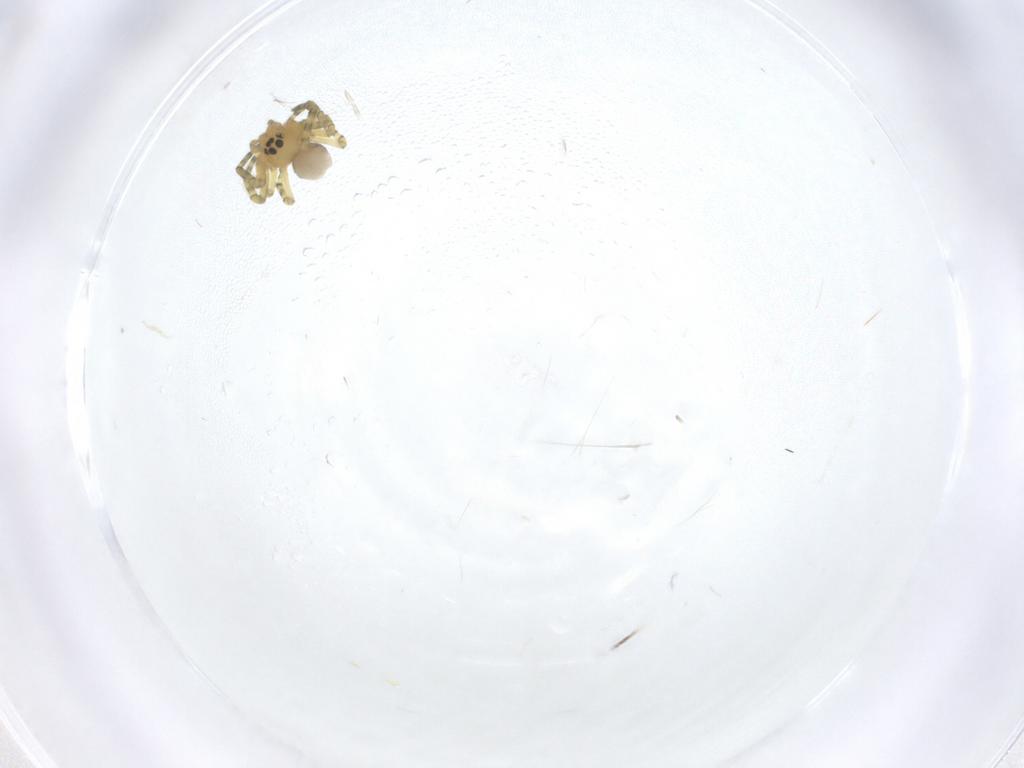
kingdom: Animalia
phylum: Arthropoda
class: Arachnida
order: Araneae
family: Linyphiidae
